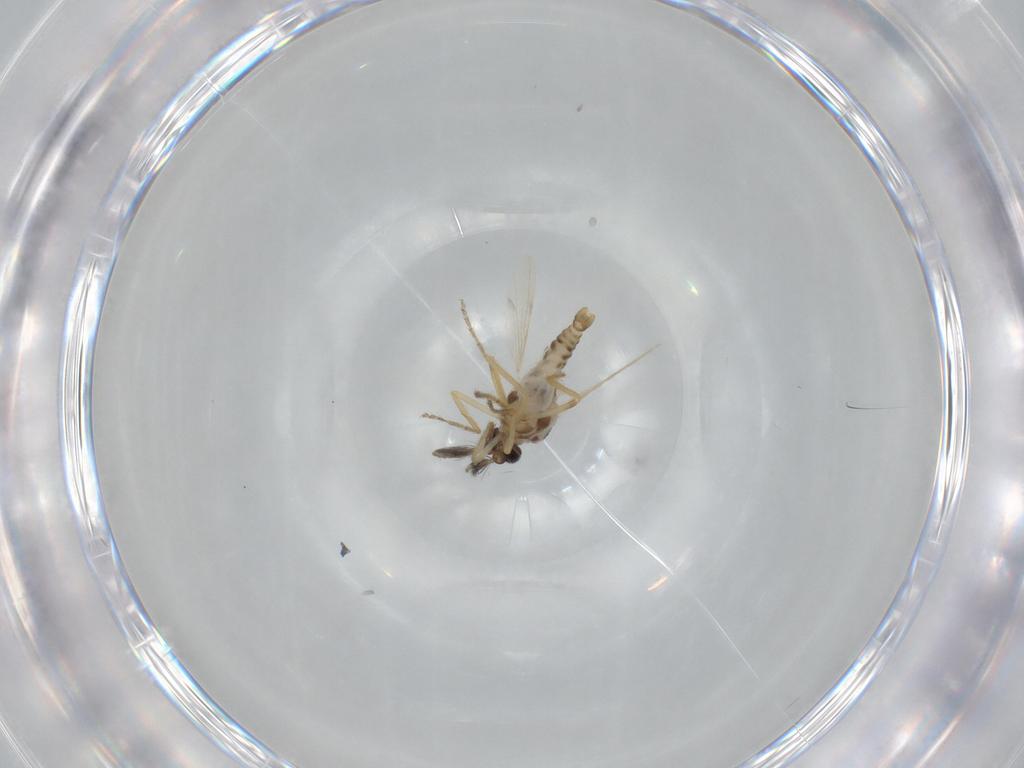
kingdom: Animalia
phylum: Arthropoda
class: Insecta
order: Diptera
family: Ceratopogonidae
